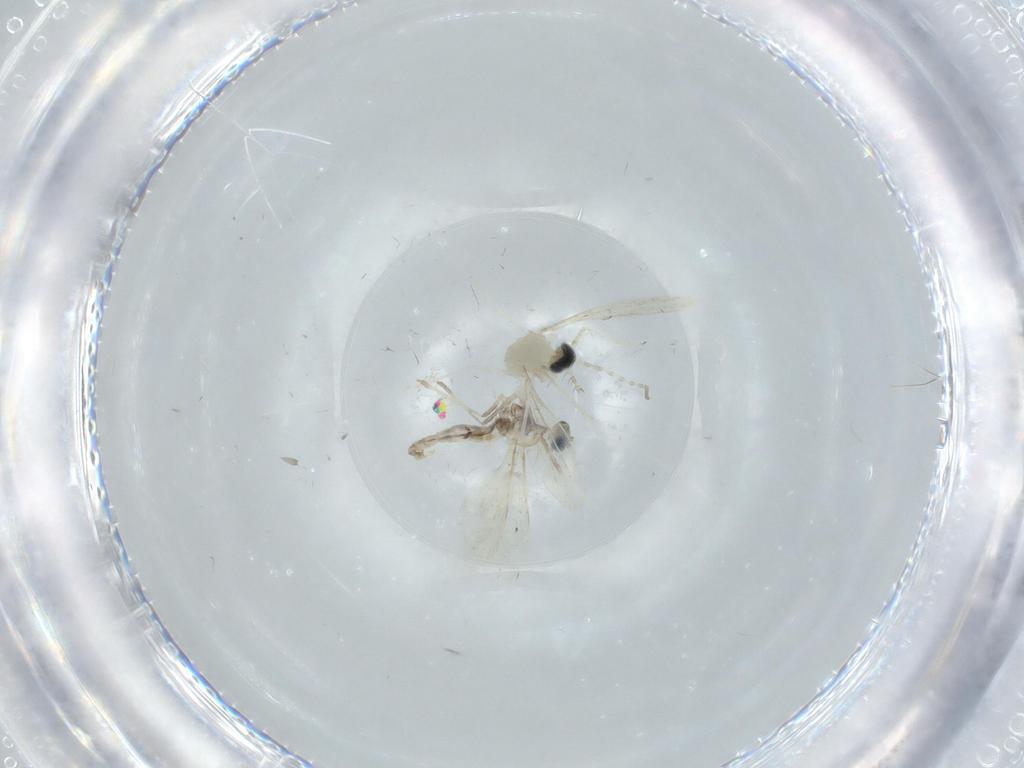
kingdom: Animalia
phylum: Arthropoda
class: Insecta
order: Diptera
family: Cecidomyiidae
